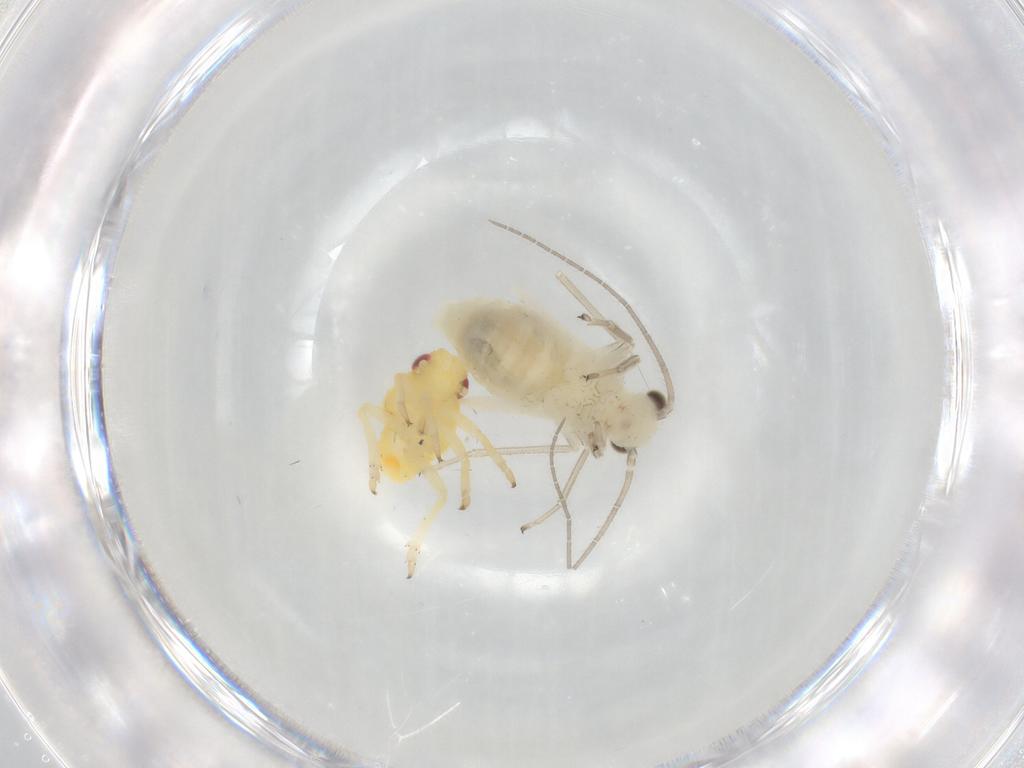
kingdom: Animalia
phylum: Arthropoda
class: Insecta
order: Psocodea
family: Caeciliusidae
